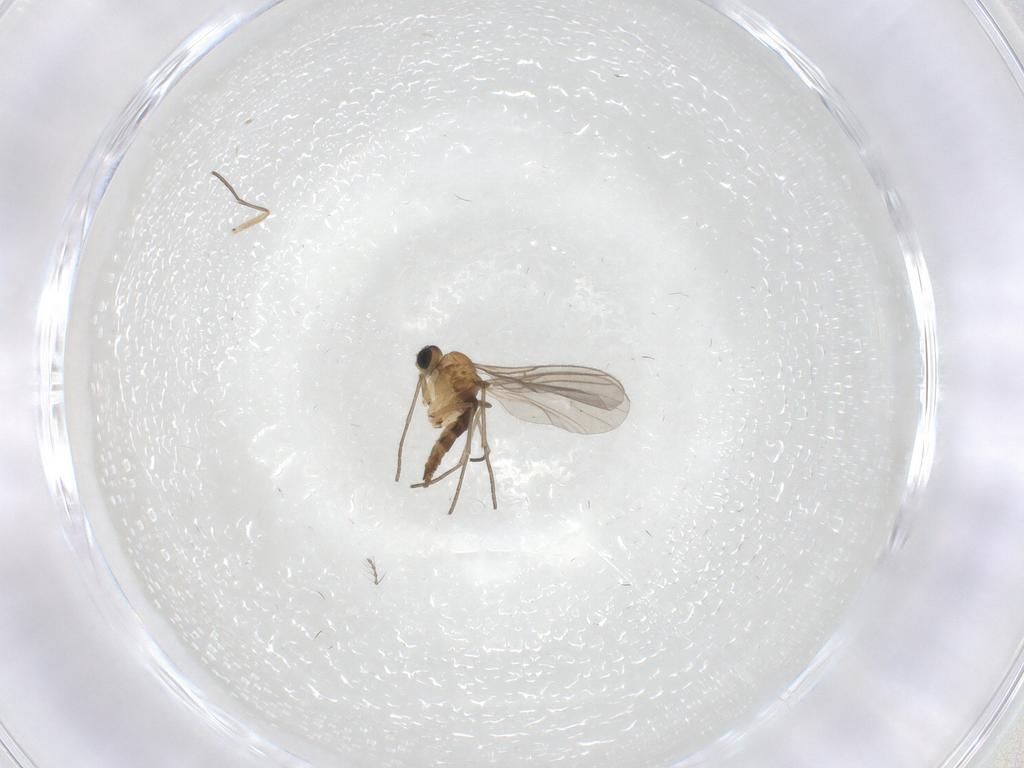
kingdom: Animalia
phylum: Arthropoda
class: Insecta
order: Diptera
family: Sciaridae
